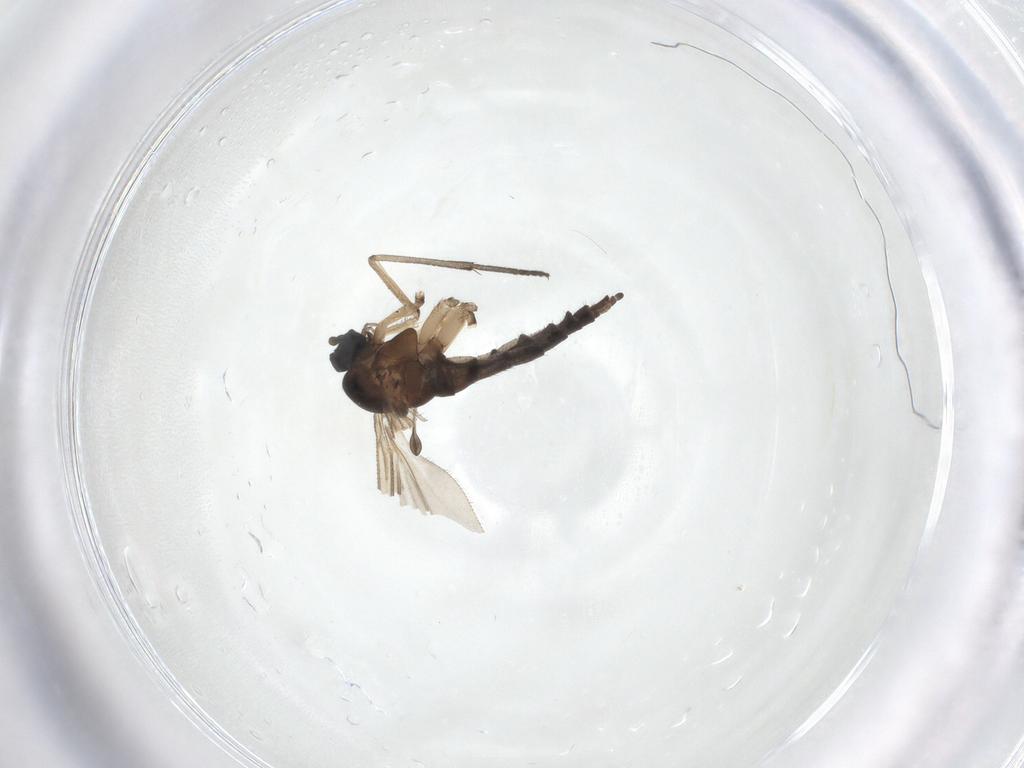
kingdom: Animalia
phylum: Arthropoda
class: Insecta
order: Diptera
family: Sciaridae
